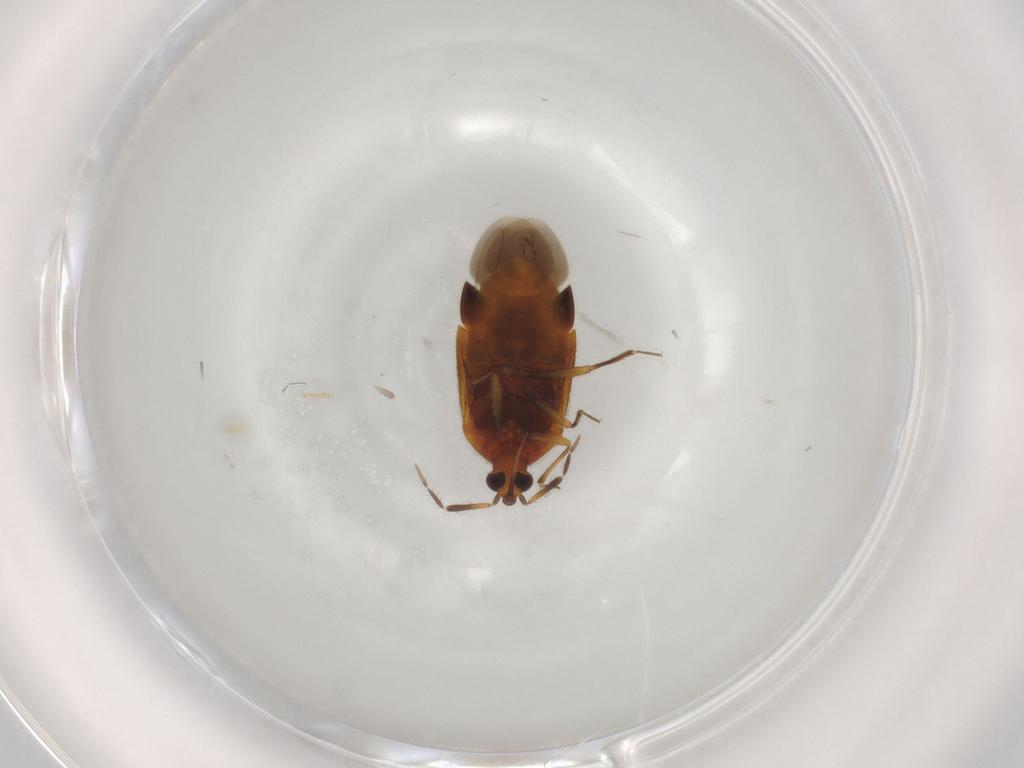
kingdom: Animalia
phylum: Arthropoda
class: Insecta
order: Hemiptera
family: Anthocoridae
